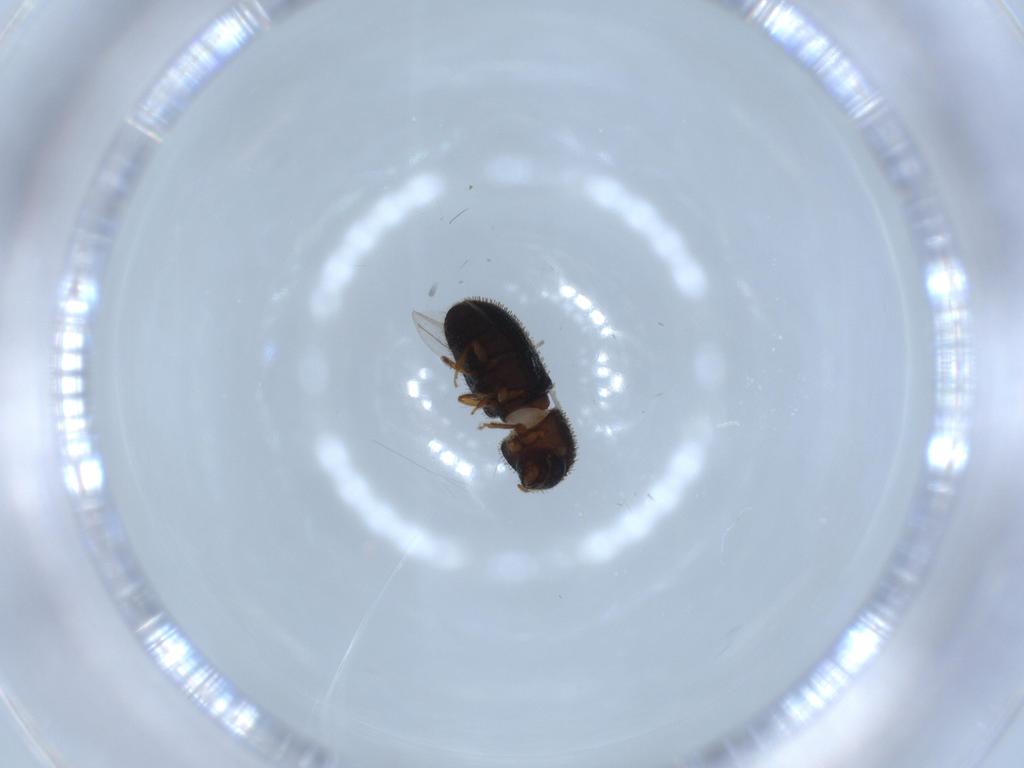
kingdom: Animalia
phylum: Arthropoda
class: Insecta
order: Coleoptera
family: Curculionidae
